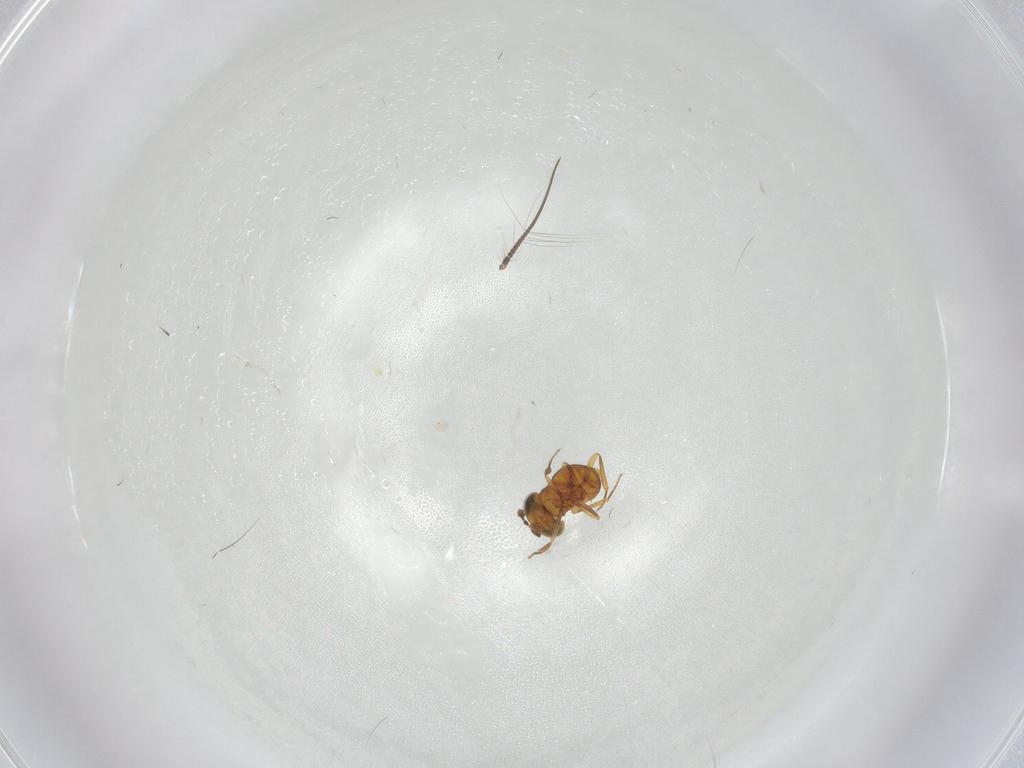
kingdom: Animalia
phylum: Arthropoda
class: Insecta
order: Hymenoptera
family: Scelionidae
